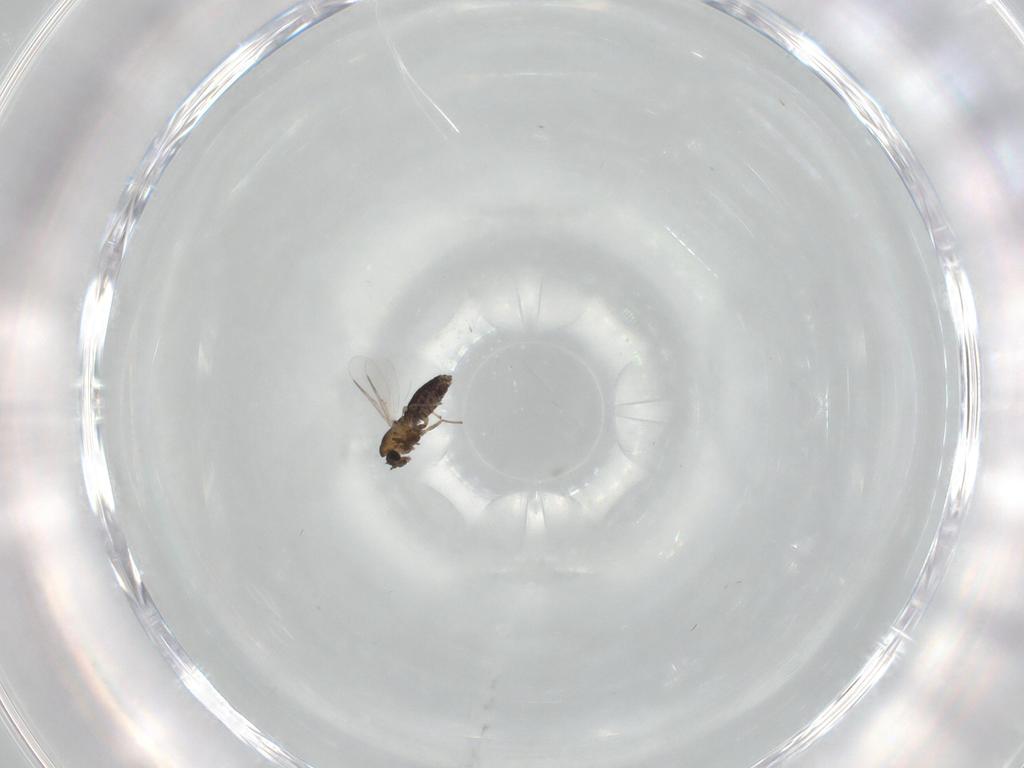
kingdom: Animalia
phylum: Arthropoda
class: Insecta
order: Diptera
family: Chironomidae
